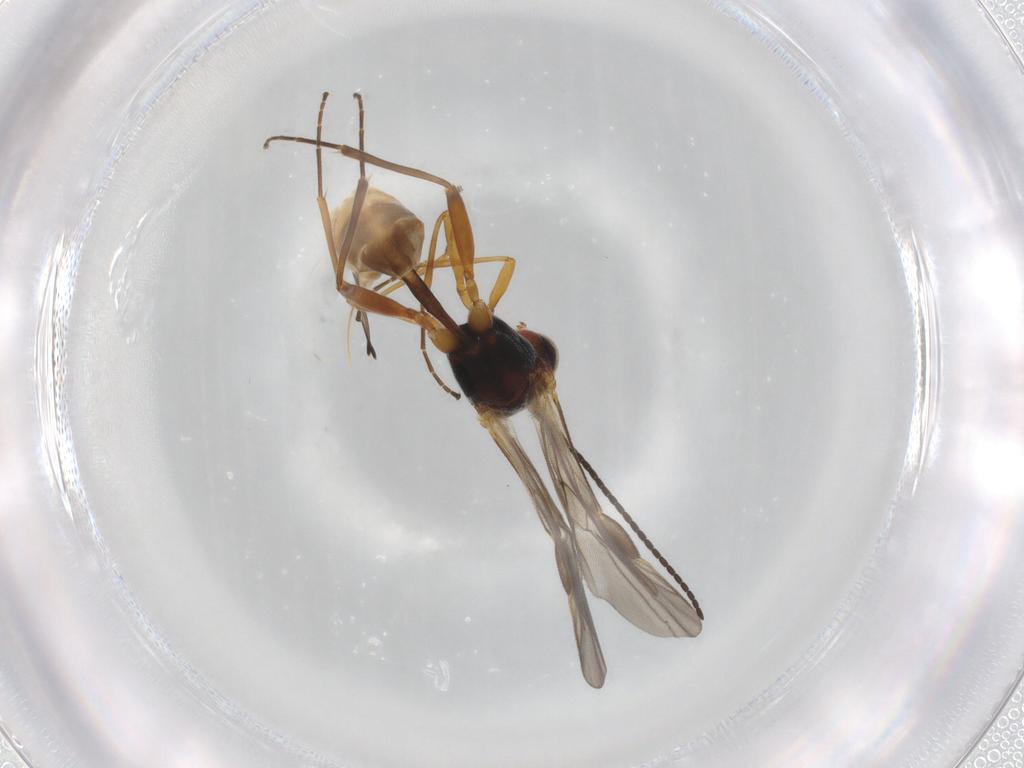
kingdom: Animalia
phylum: Arthropoda
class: Insecta
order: Hymenoptera
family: Braconidae
